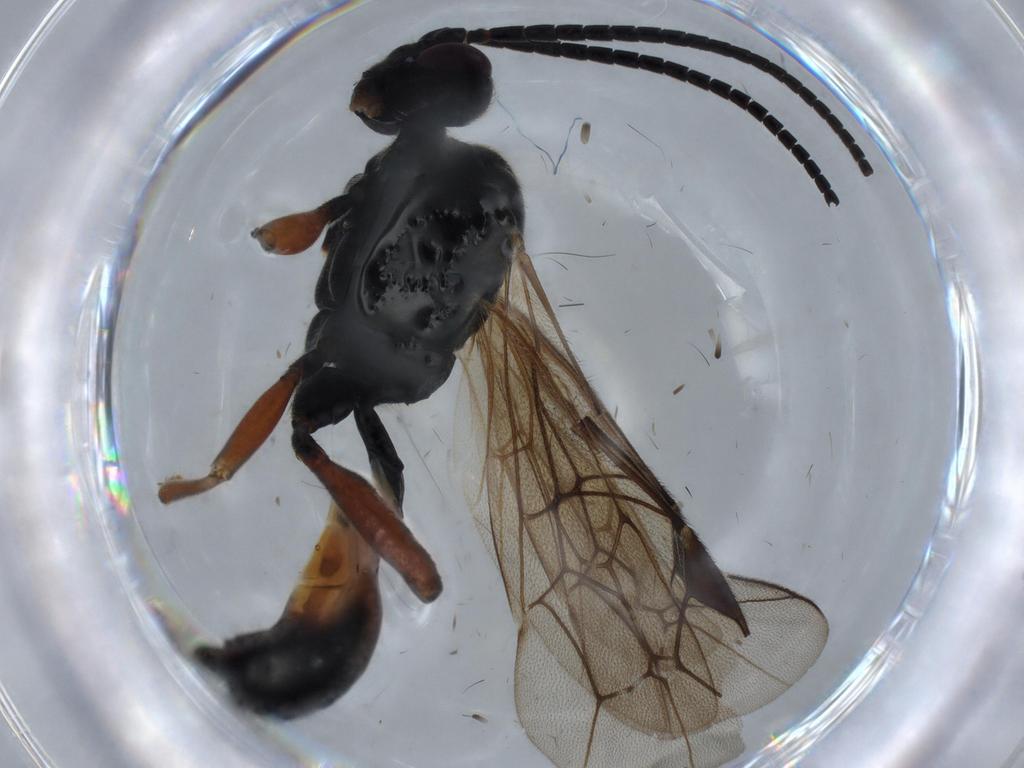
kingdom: Animalia
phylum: Arthropoda
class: Insecta
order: Hymenoptera
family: Ichneumonidae
